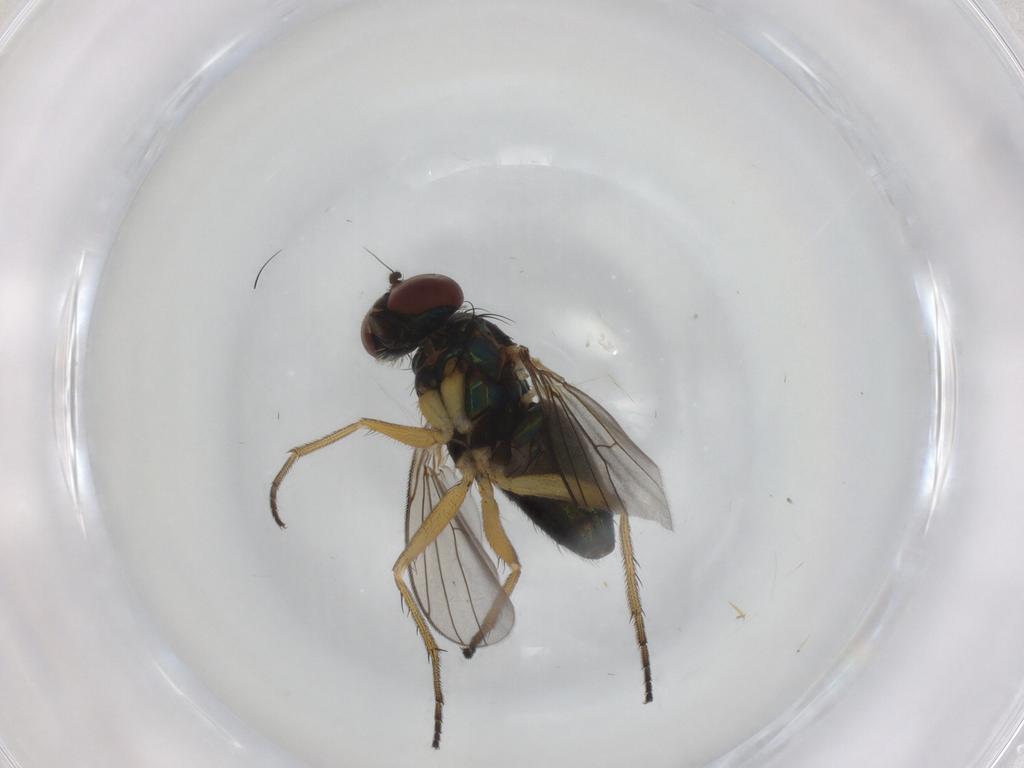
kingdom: Animalia
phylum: Arthropoda
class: Insecta
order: Diptera
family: Dolichopodidae
